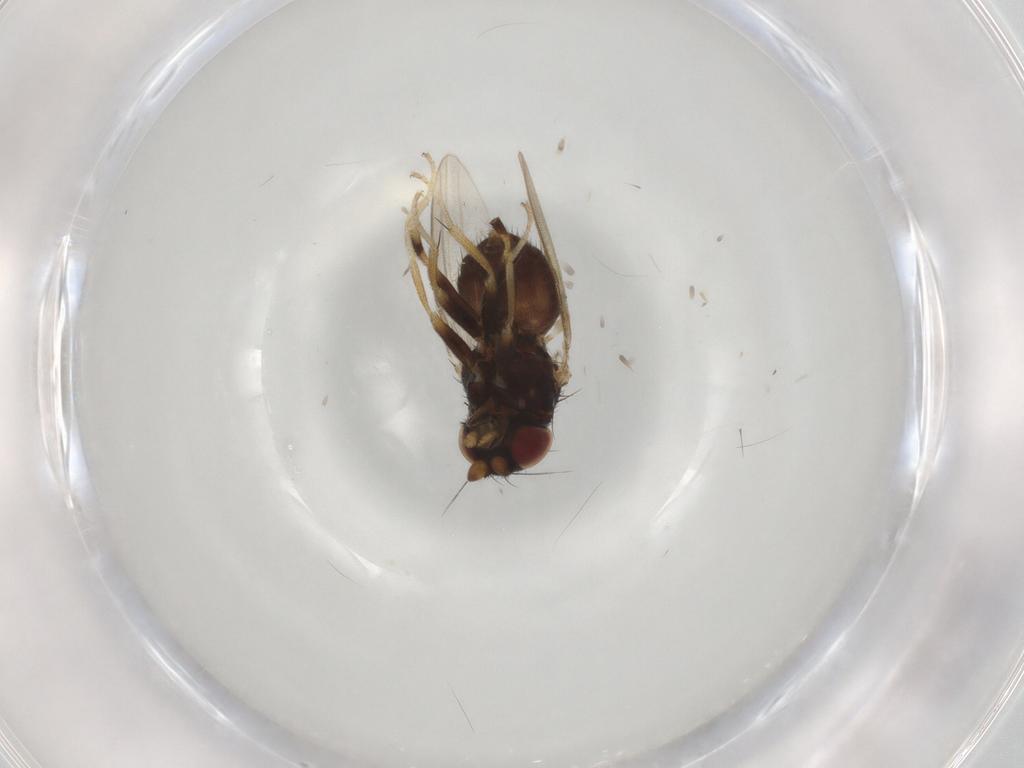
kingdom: Animalia
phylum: Arthropoda
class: Insecta
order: Diptera
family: Milichiidae
